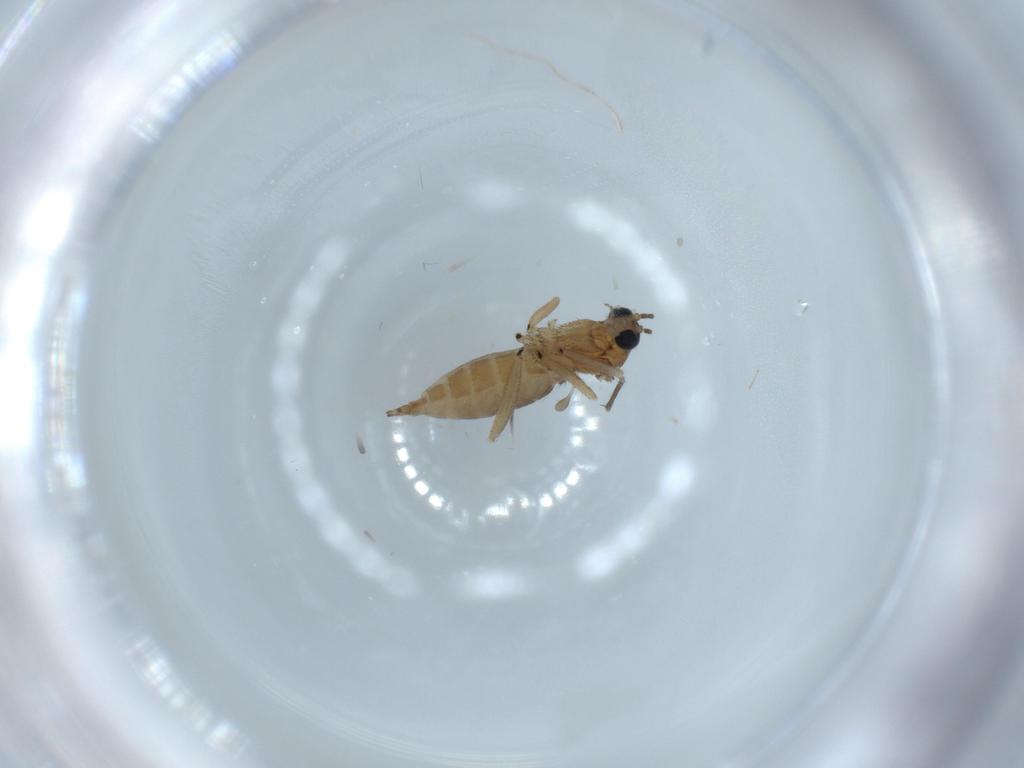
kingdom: Animalia
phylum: Arthropoda
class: Insecta
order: Diptera
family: Sciaridae
